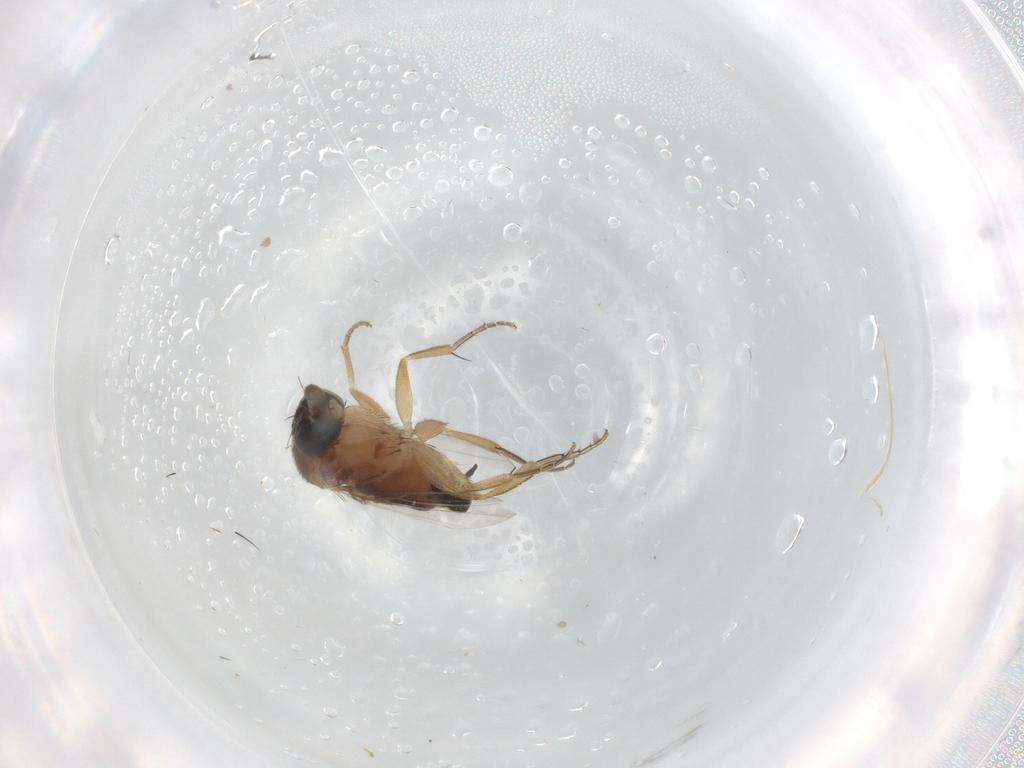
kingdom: Animalia
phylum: Arthropoda
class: Insecta
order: Diptera
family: Phoridae
